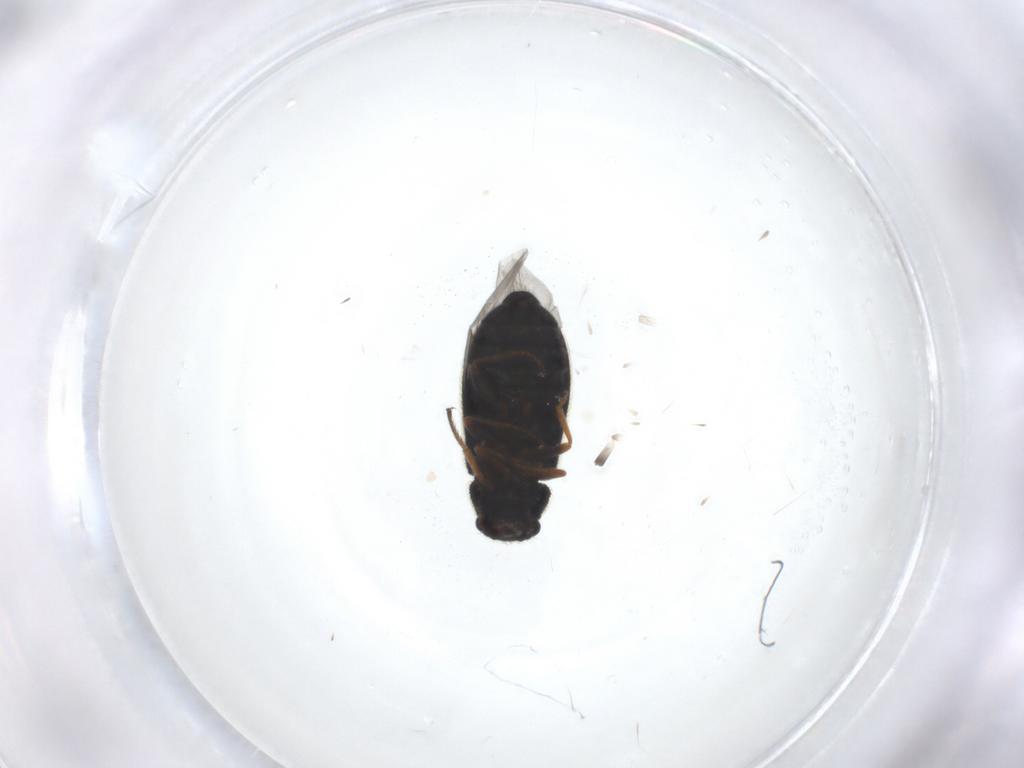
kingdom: Animalia
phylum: Arthropoda
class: Insecta
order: Coleoptera
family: Melyridae
